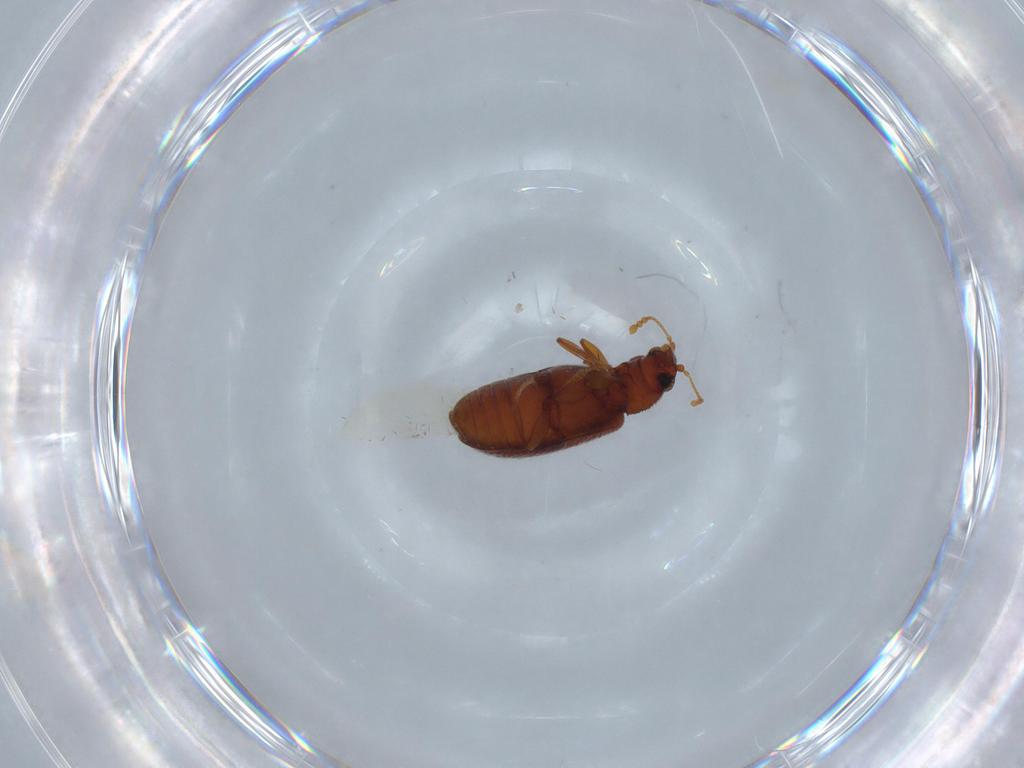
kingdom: Animalia
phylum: Arthropoda
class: Insecta
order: Coleoptera
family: Latridiidae
